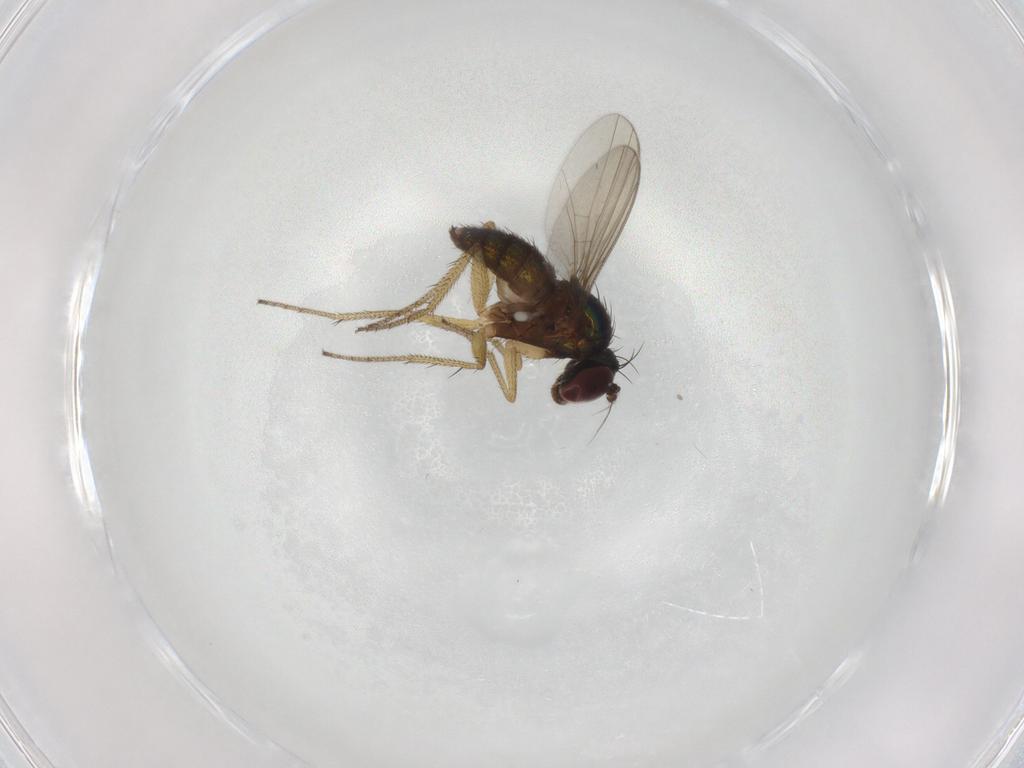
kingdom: Animalia
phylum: Arthropoda
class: Insecta
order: Diptera
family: Dolichopodidae
